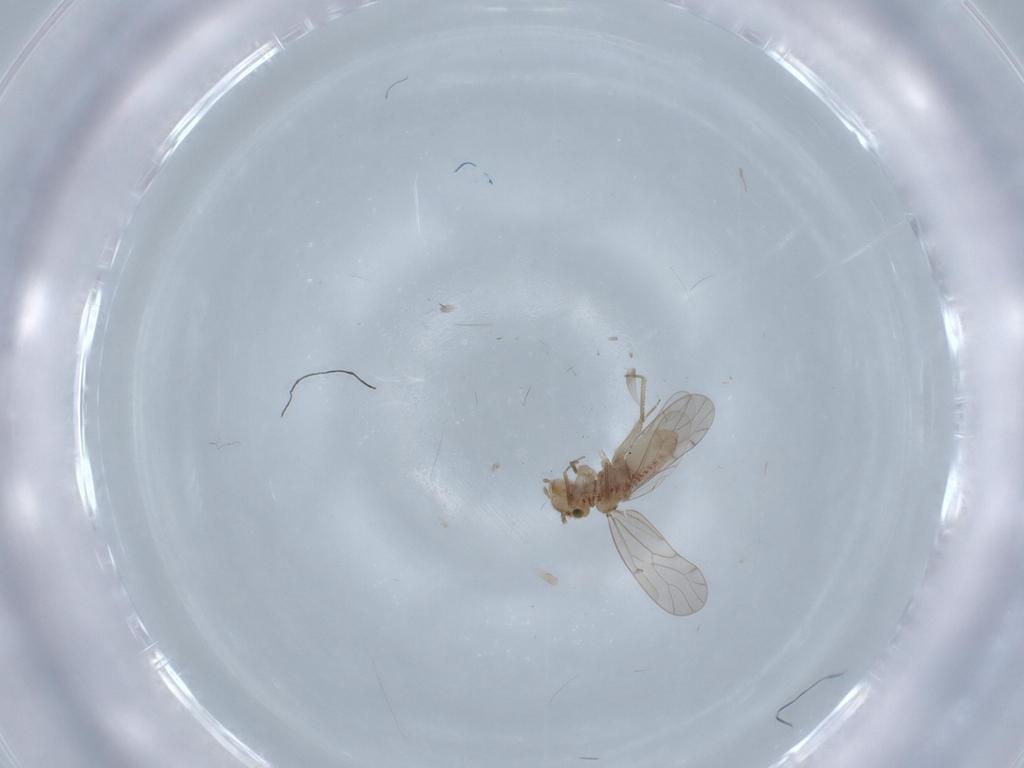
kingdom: Animalia
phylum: Arthropoda
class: Insecta
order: Psocodea
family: Ectopsocidae
